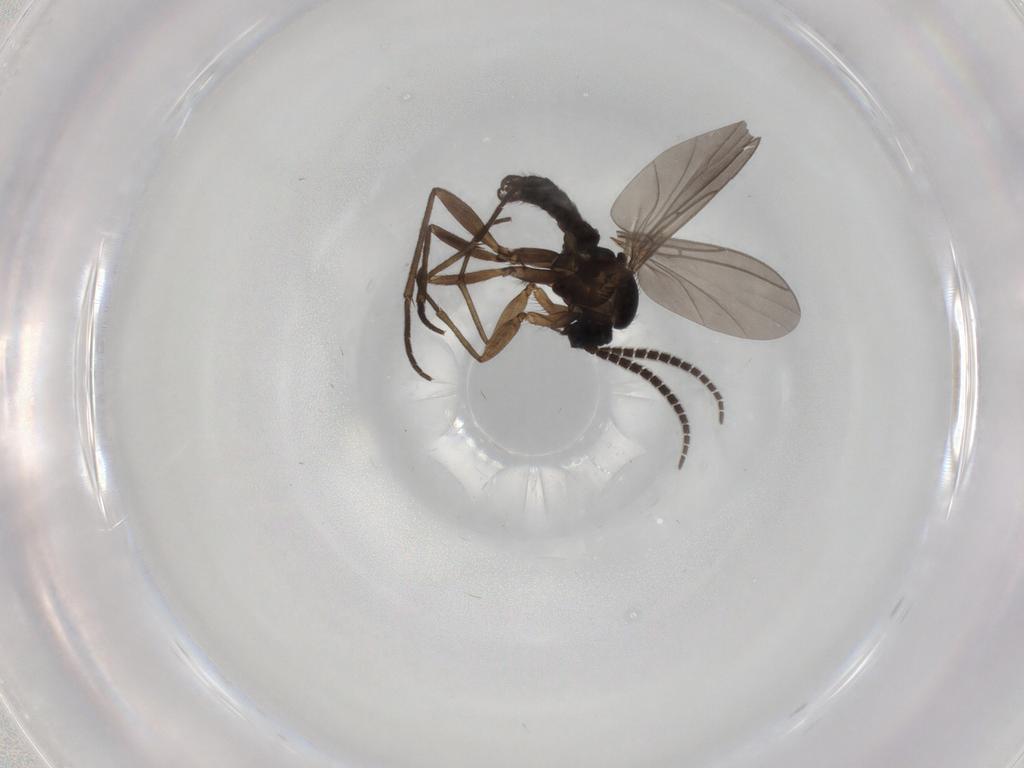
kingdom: Animalia
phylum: Arthropoda
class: Insecta
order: Diptera
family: Sciaridae
